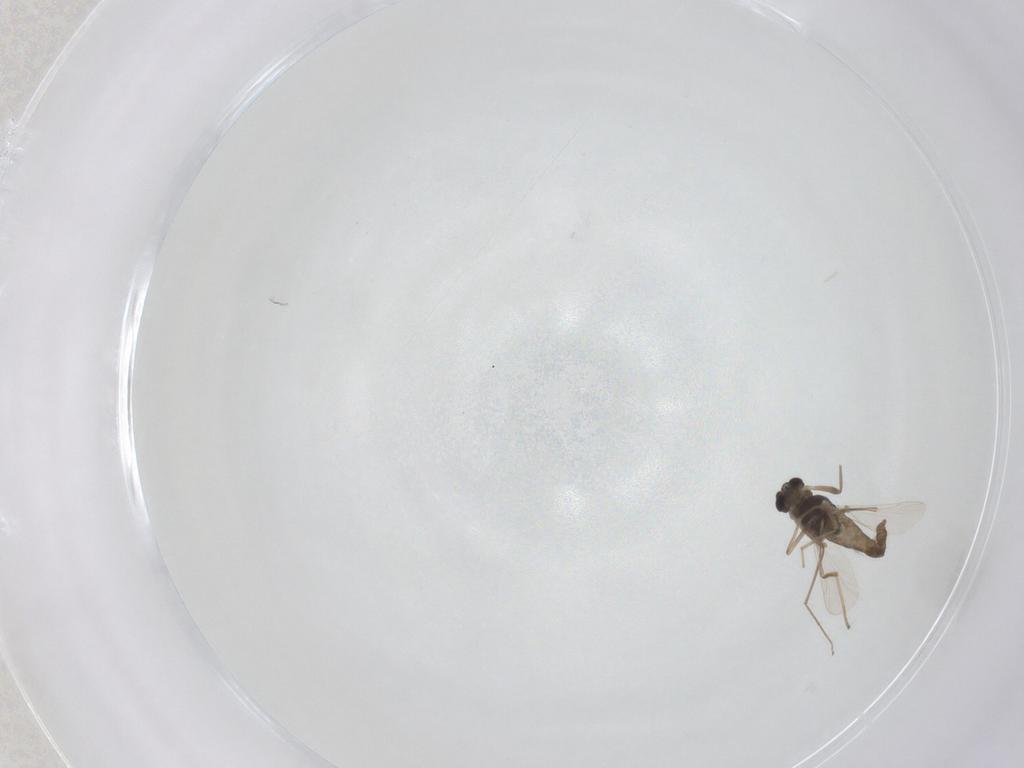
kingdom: Animalia
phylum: Arthropoda
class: Insecta
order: Diptera
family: Chironomidae
